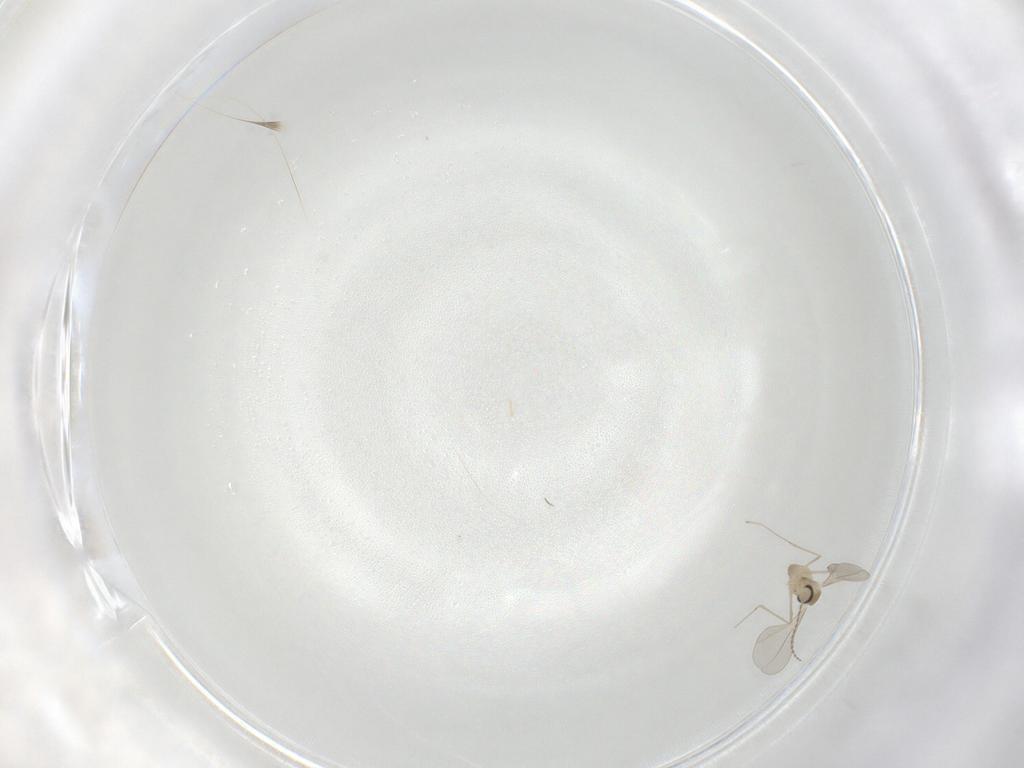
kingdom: Animalia
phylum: Arthropoda
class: Insecta
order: Diptera
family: Cecidomyiidae
